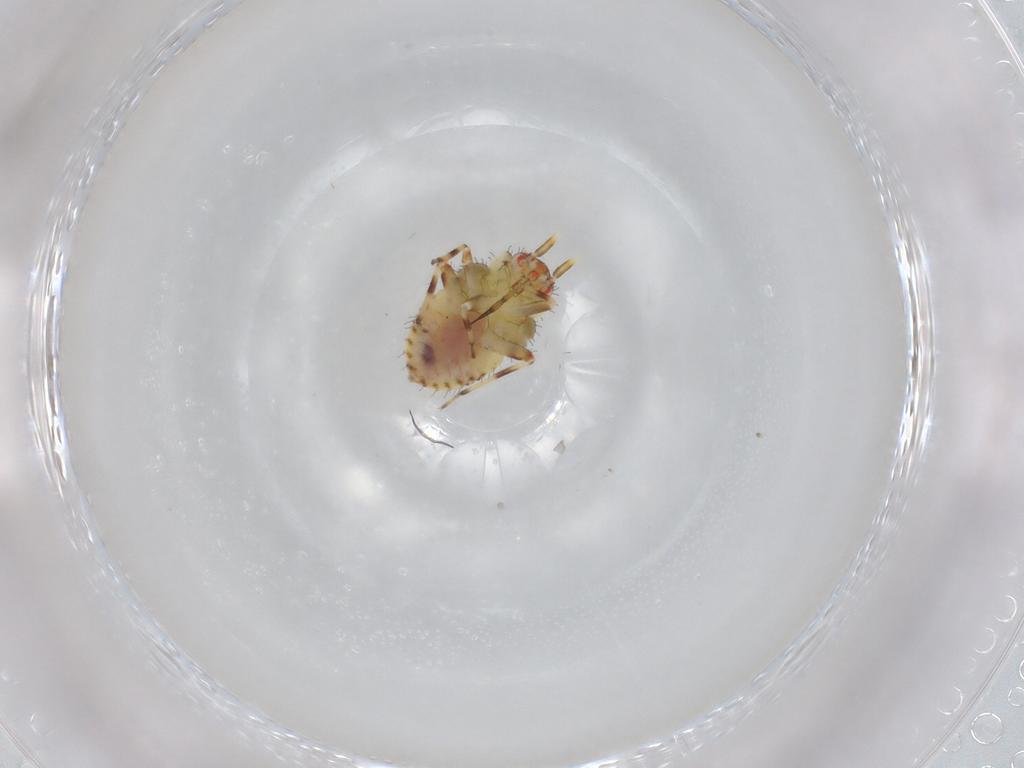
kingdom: Animalia
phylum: Arthropoda
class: Insecta
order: Hemiptera
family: Miridae
